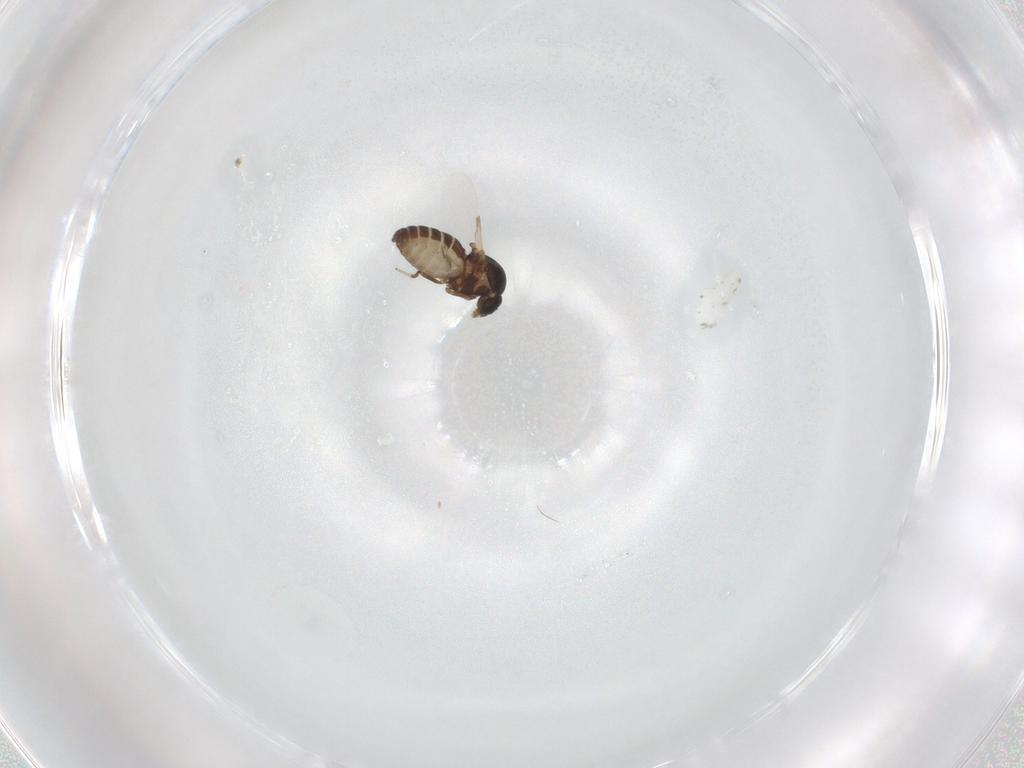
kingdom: Animalia
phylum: Arthropoda
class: Insecta
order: Diptera
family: Ceratopogonidae
